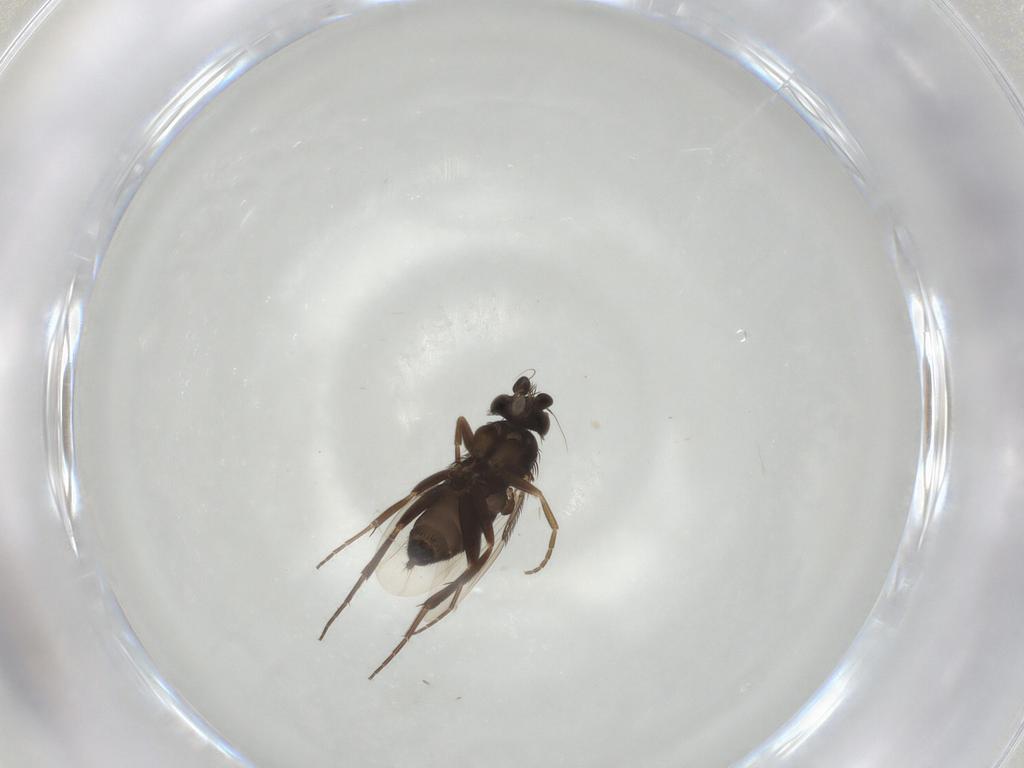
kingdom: Animalia
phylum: Arthropoda
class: Insecta
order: Diptera
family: Phoridae
